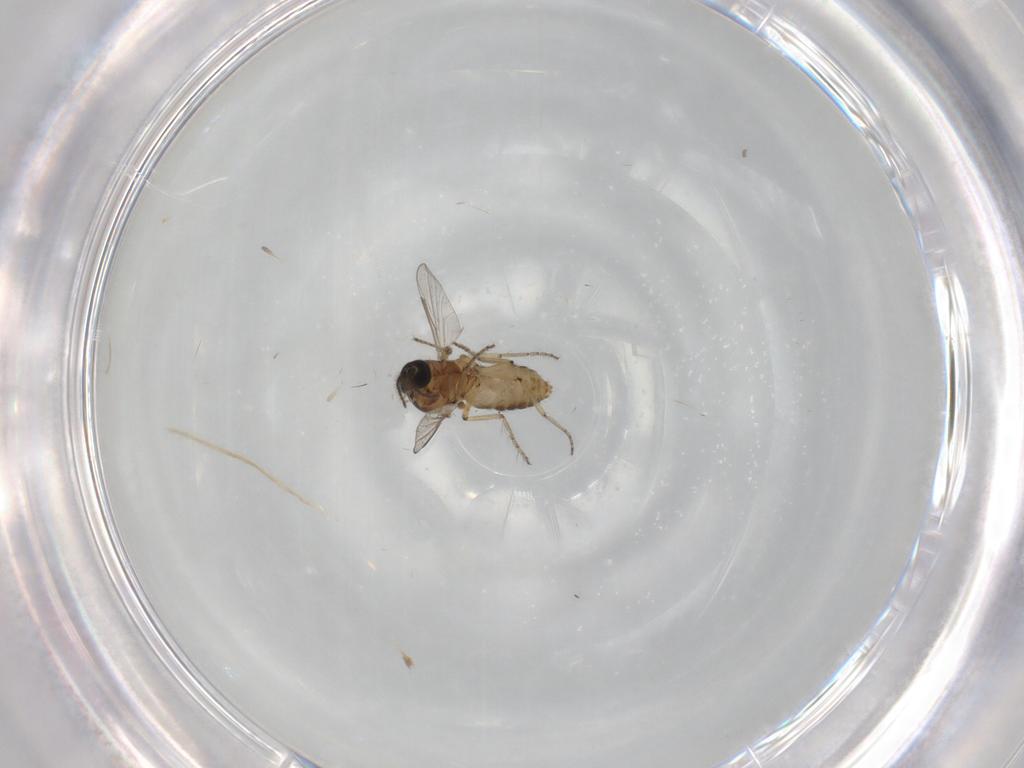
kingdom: Animalia
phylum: Arthropoda
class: Insecta
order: Diptera
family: Ceratopogonidae
